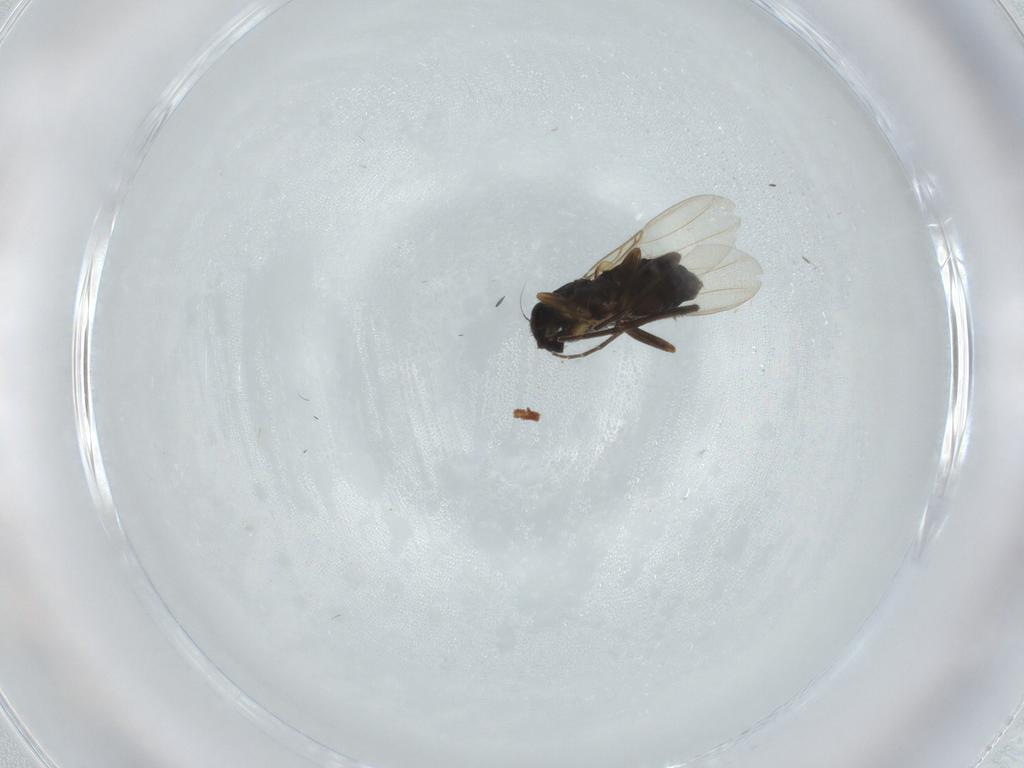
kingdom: Animalia
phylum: Arthropoda
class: Insecta
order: Diptera
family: Phoridae
